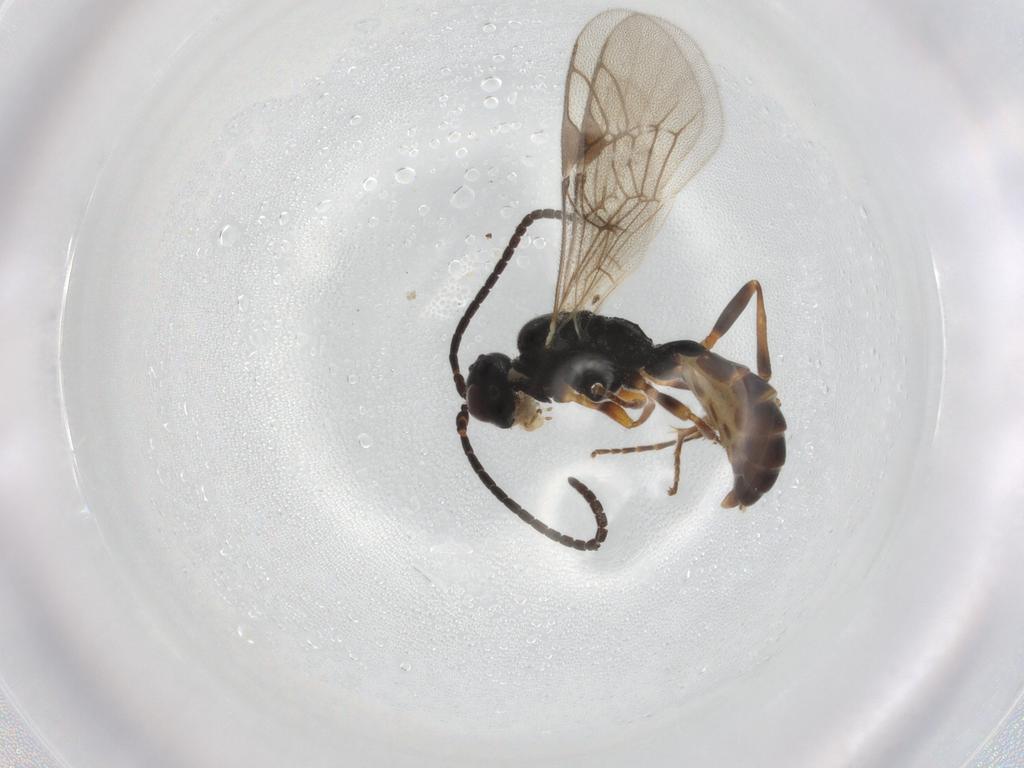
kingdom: Animalia
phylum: Arthropoda
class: Insecta
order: Hymenoptera
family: Ichneumonidae
